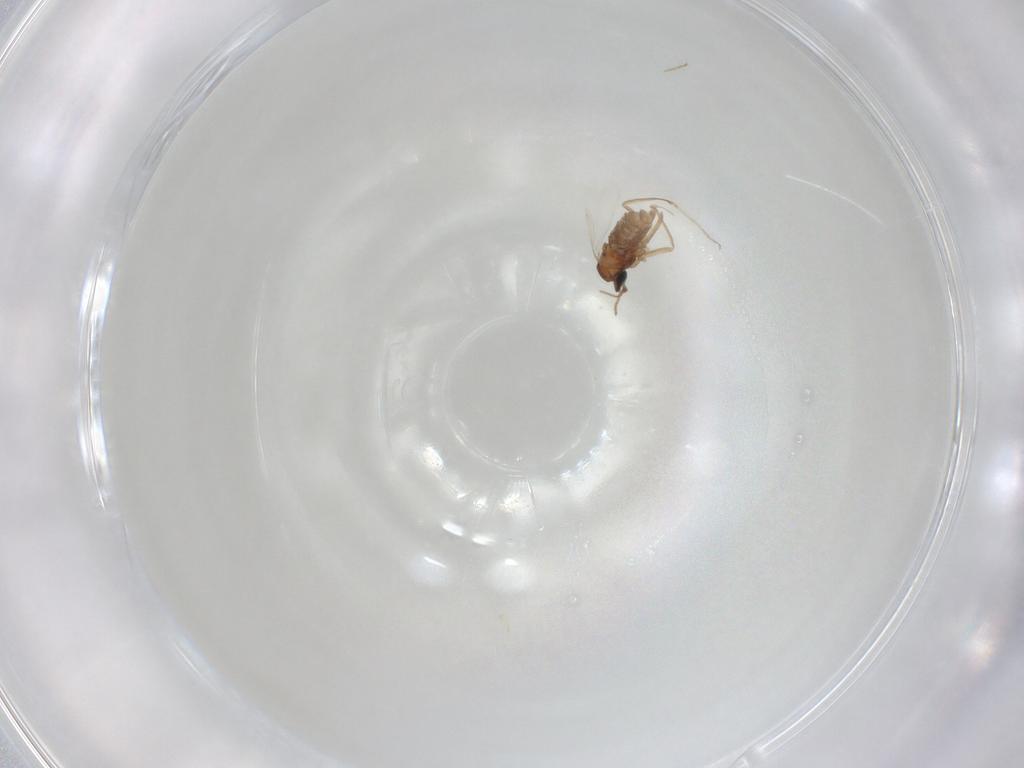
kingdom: Animalia
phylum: Arthropoda
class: Insecta
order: Diptera
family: Cecidomyiidae
